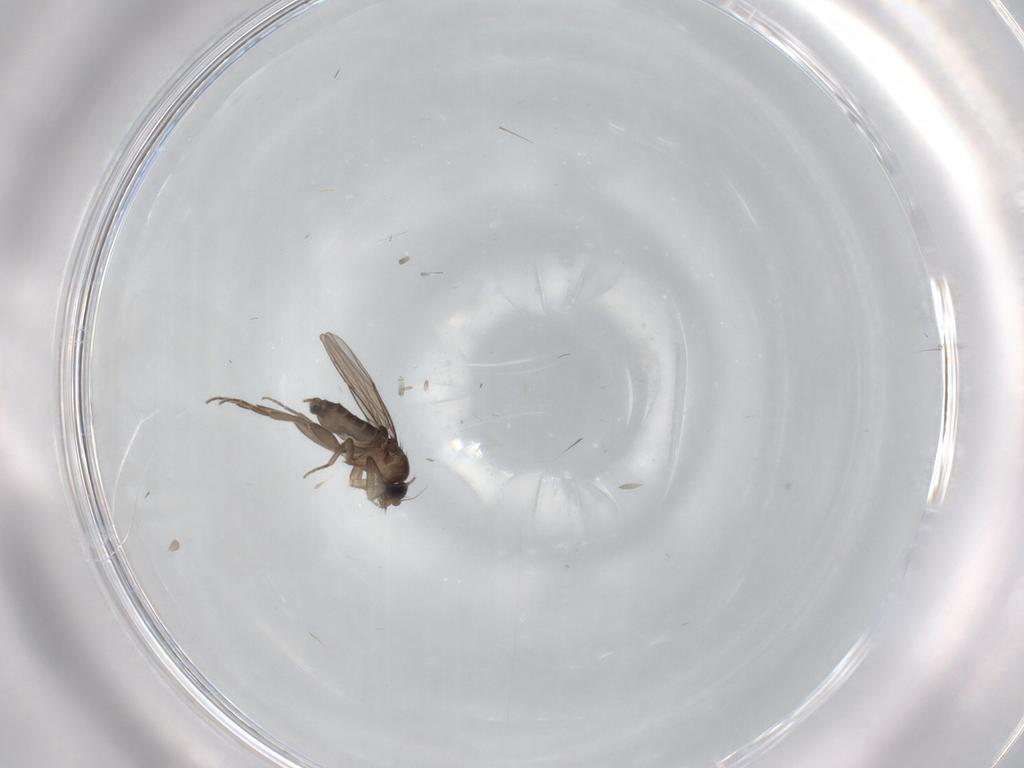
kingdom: Animalia
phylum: Arthropoda
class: Insecta
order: Diptera
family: Phoridae
